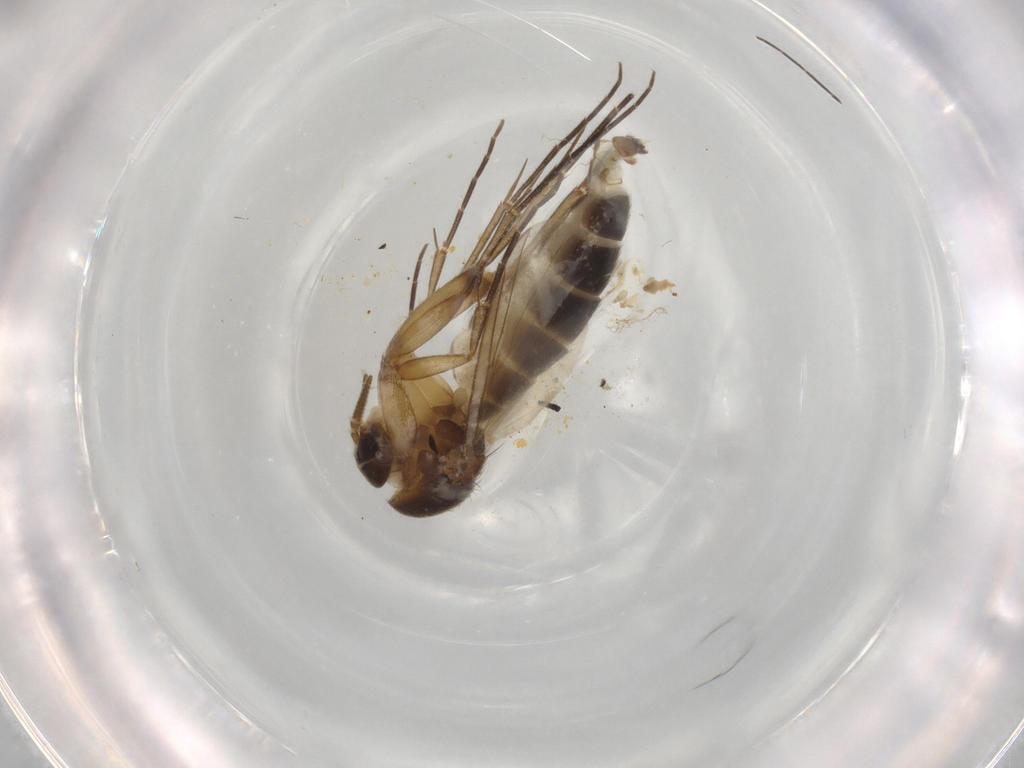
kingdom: Animalia
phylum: Arthropoda
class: Insecta
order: Diptera
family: Mycetophilidae
